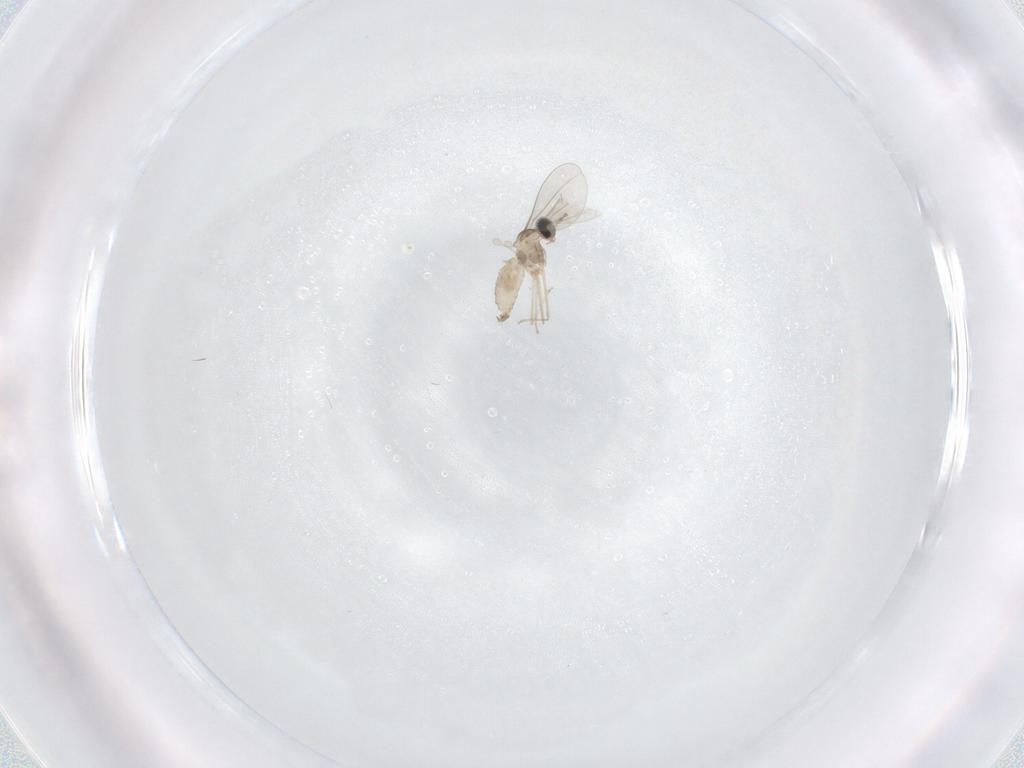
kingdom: Animalia
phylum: Arthropoda
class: Insecta
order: Diptera
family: Cecidomyiidae
